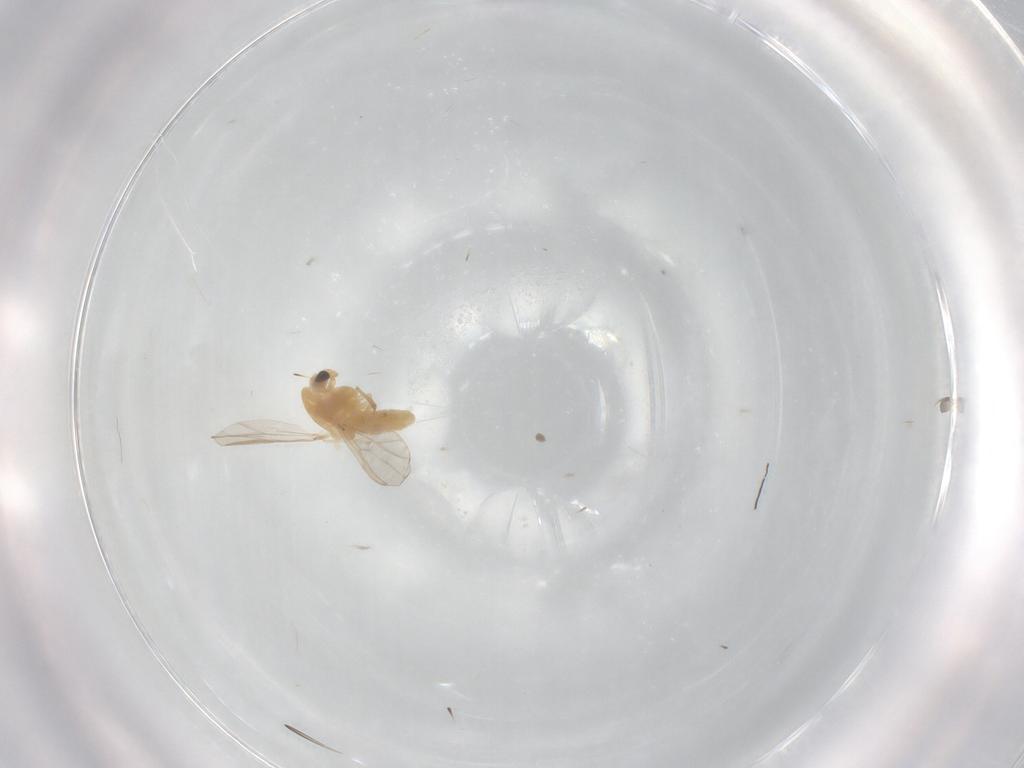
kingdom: Animalia
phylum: Arthropoda
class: Insecta
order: Diptera
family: Chironomidae
